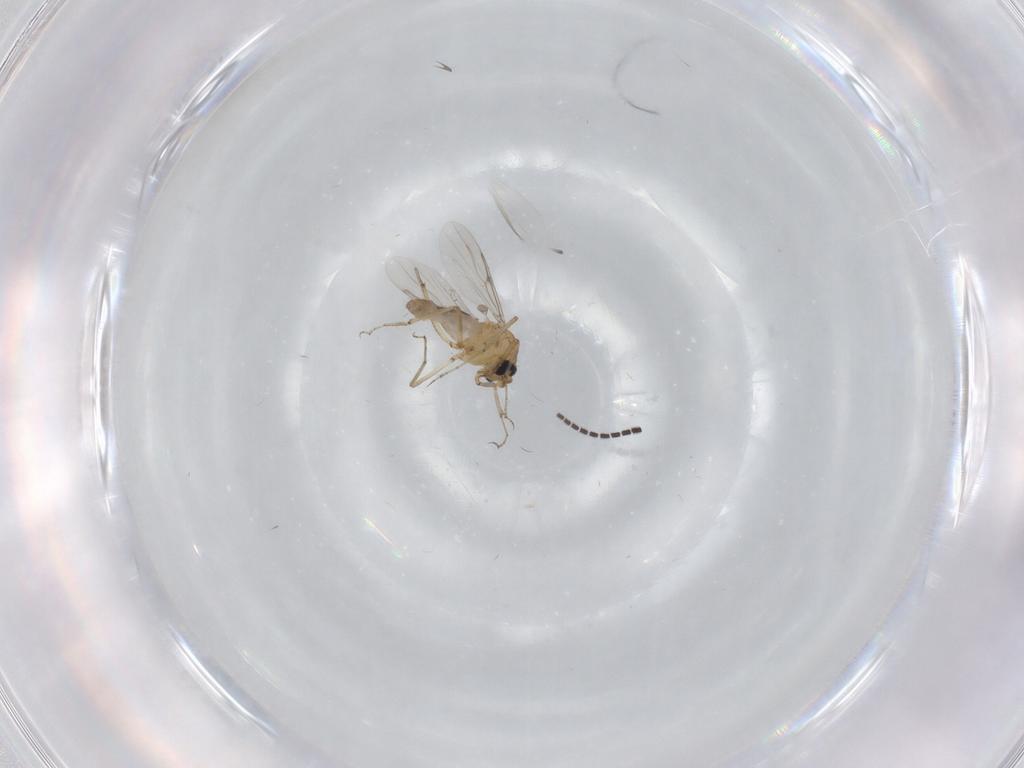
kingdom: Animalia
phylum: Arthropoda
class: Insecta
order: Diptera
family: Sciaridae
